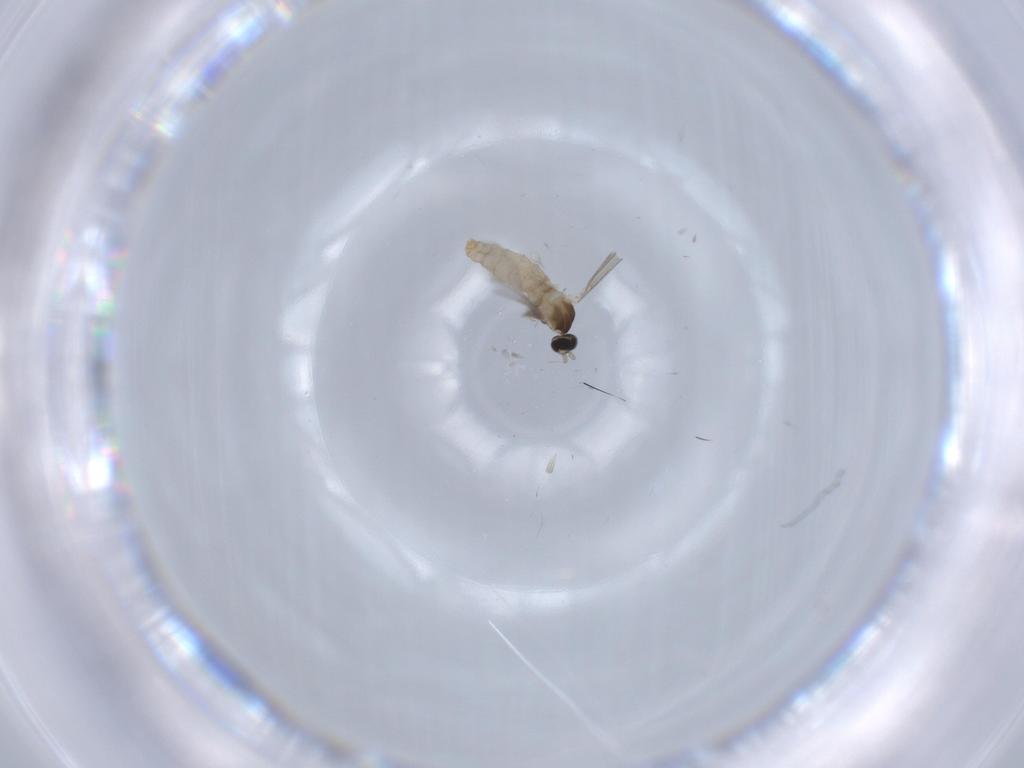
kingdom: Animalia
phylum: Arthropoda
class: Insecta
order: Diptera
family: Cecidomyiidae
